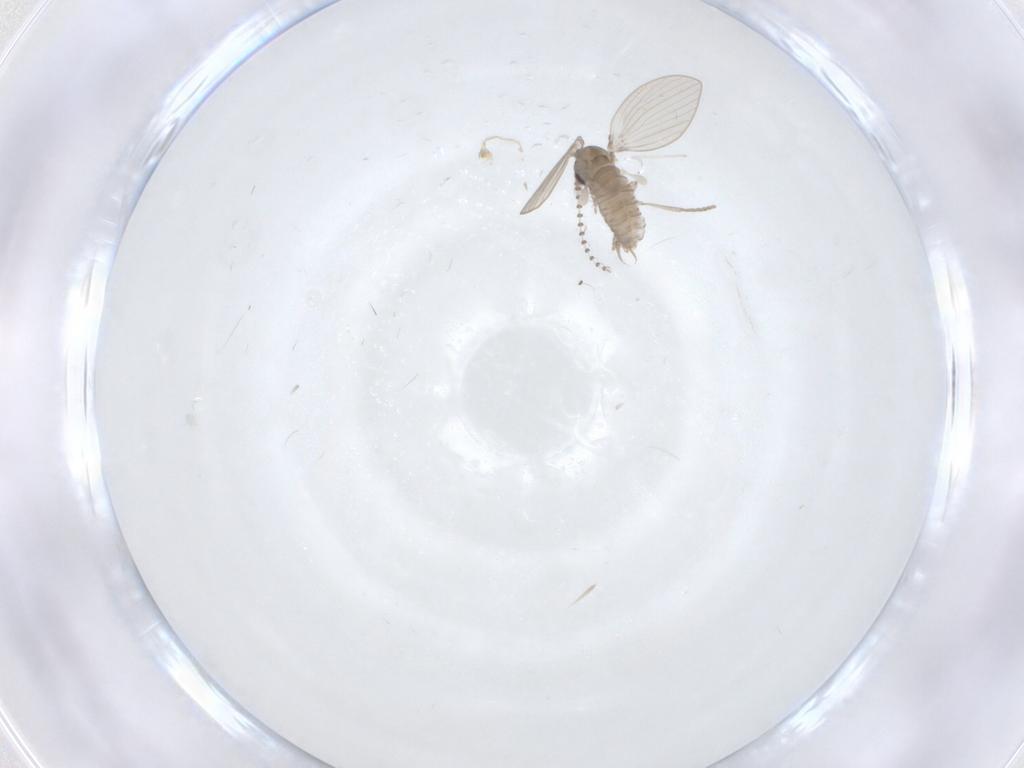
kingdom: Animalia
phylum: Arthropoda
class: Insecta
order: Diptera
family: Psychodidae
